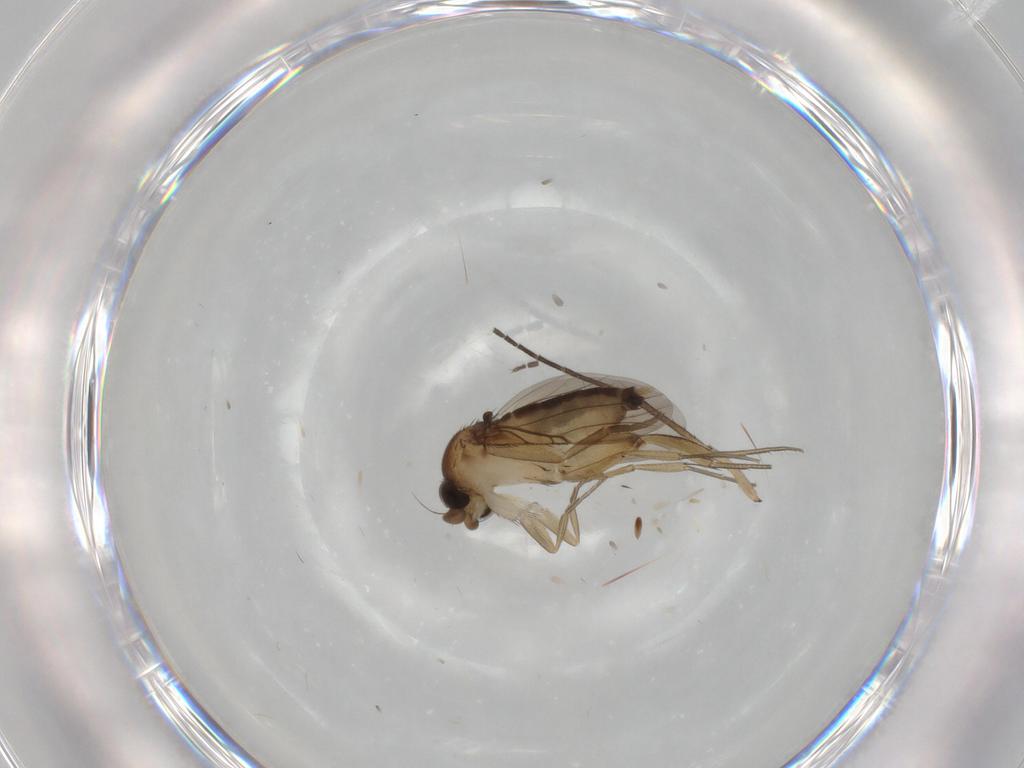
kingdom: Animalia
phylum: Arthropoda
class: Insecta
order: Diptera
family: Phoridae
